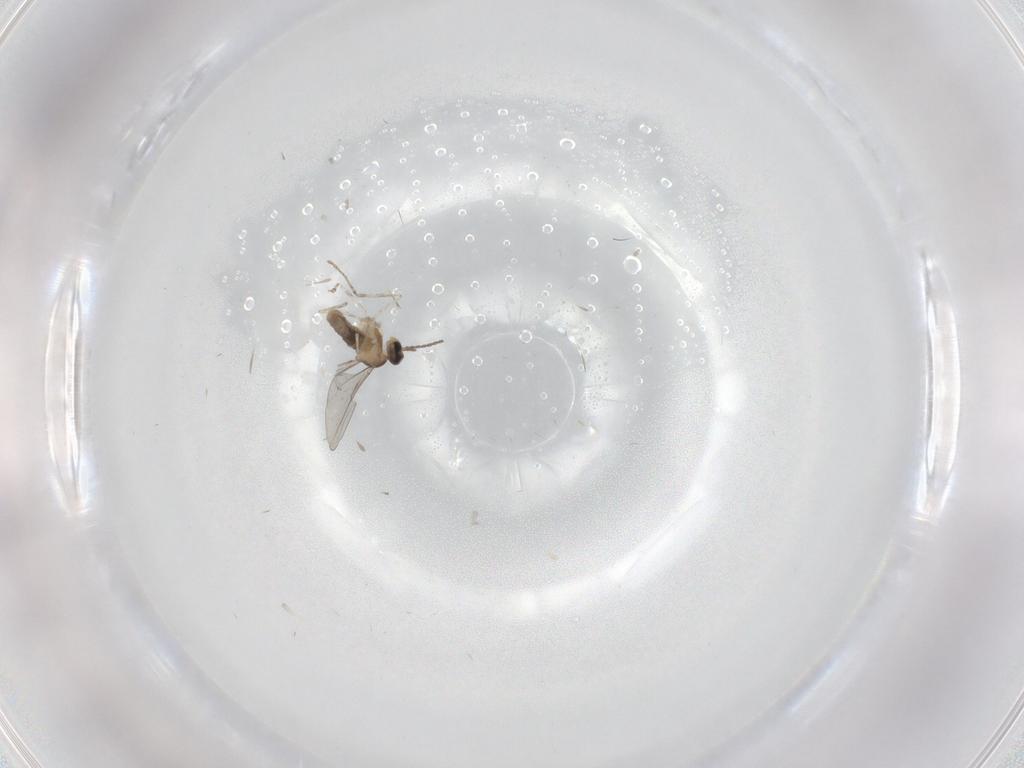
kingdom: Animalia
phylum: Arthropoda
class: Insecta
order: Diptera
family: Cecidomyiidae
